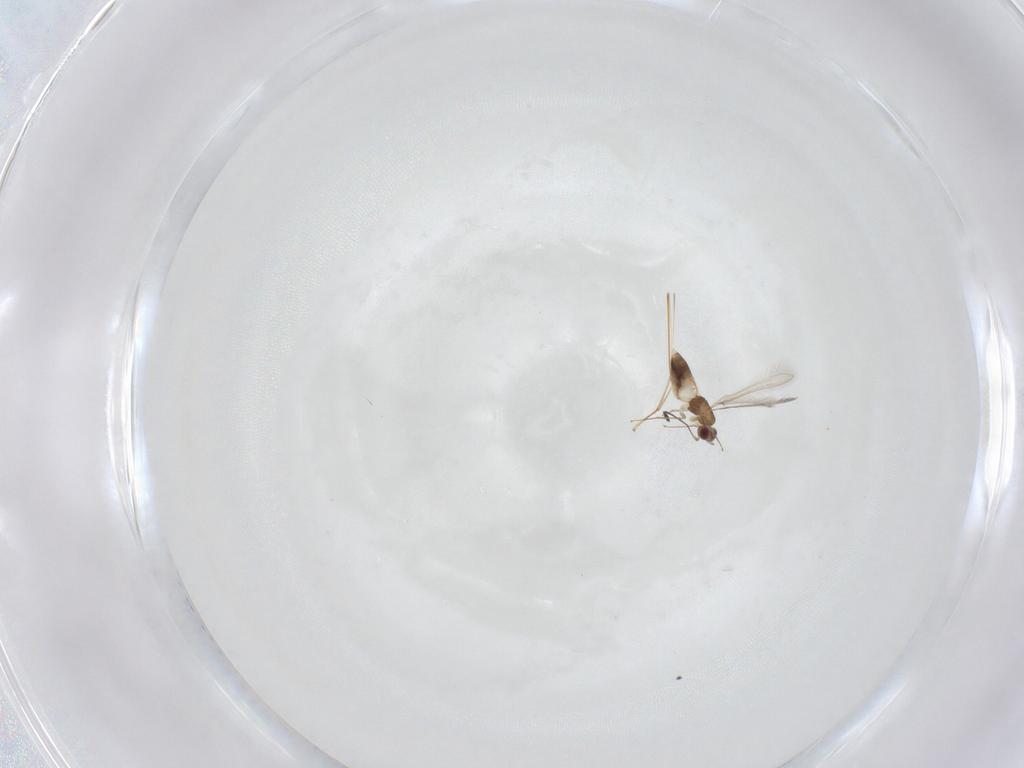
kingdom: Animalia
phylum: Arthropoda
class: Insecta
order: Hymenoptera
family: Mymaridae
